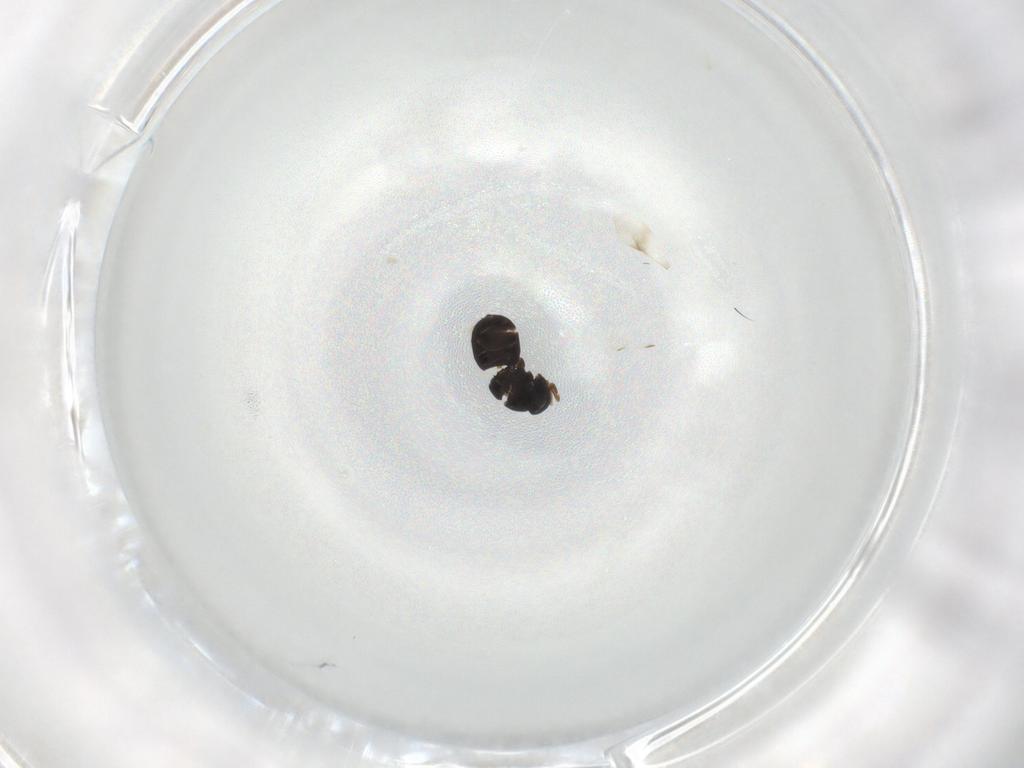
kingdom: Animalia
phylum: Arthropoda
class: Insecta
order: Hymenoptera
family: Scelionidae
